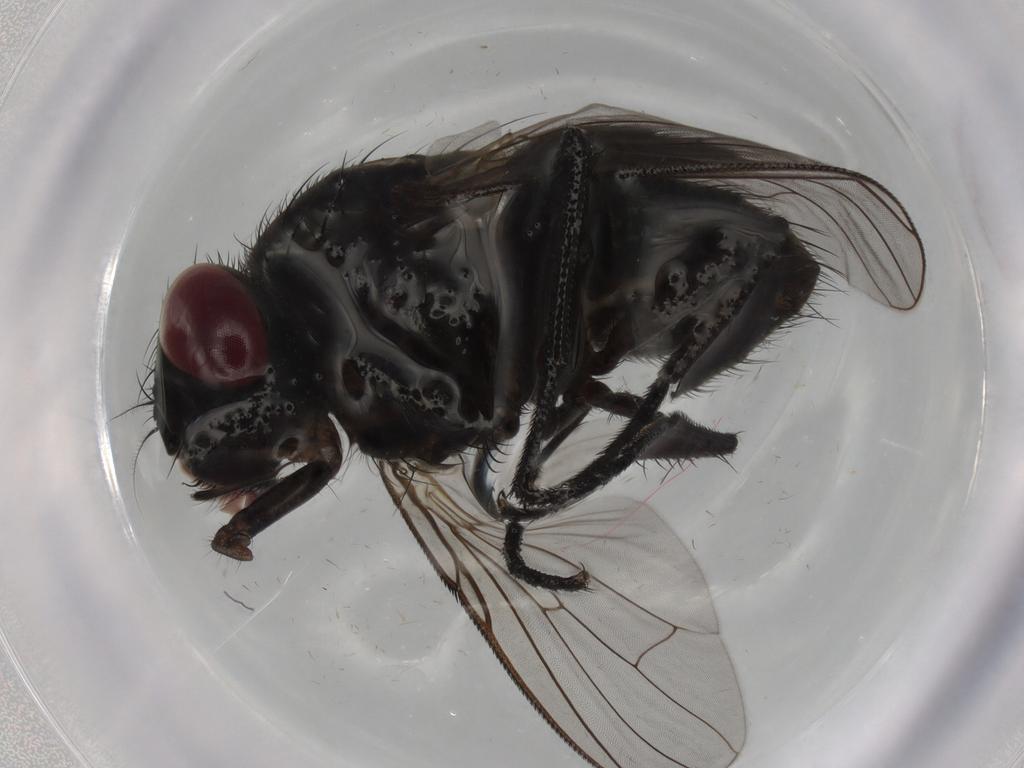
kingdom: Animalia
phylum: Arthropoda
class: Insecta
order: Diptera
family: Muscidae
